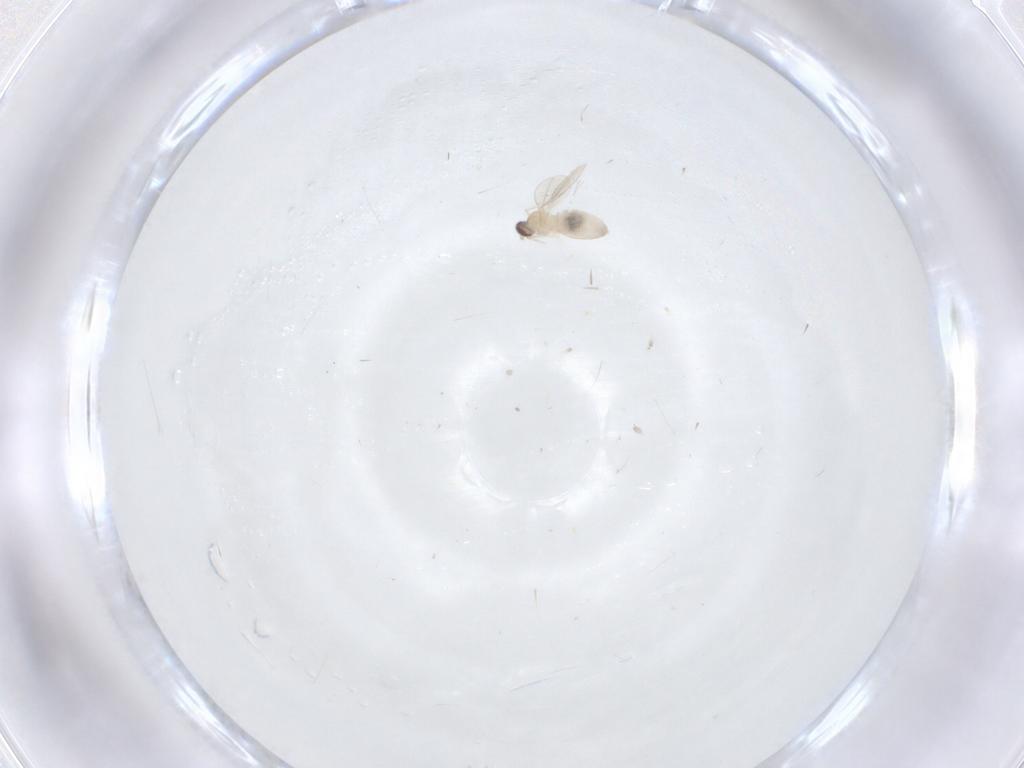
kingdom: Animalia
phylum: Arthropoda
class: Insecta
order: Diptera
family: Cecidomyiidae
